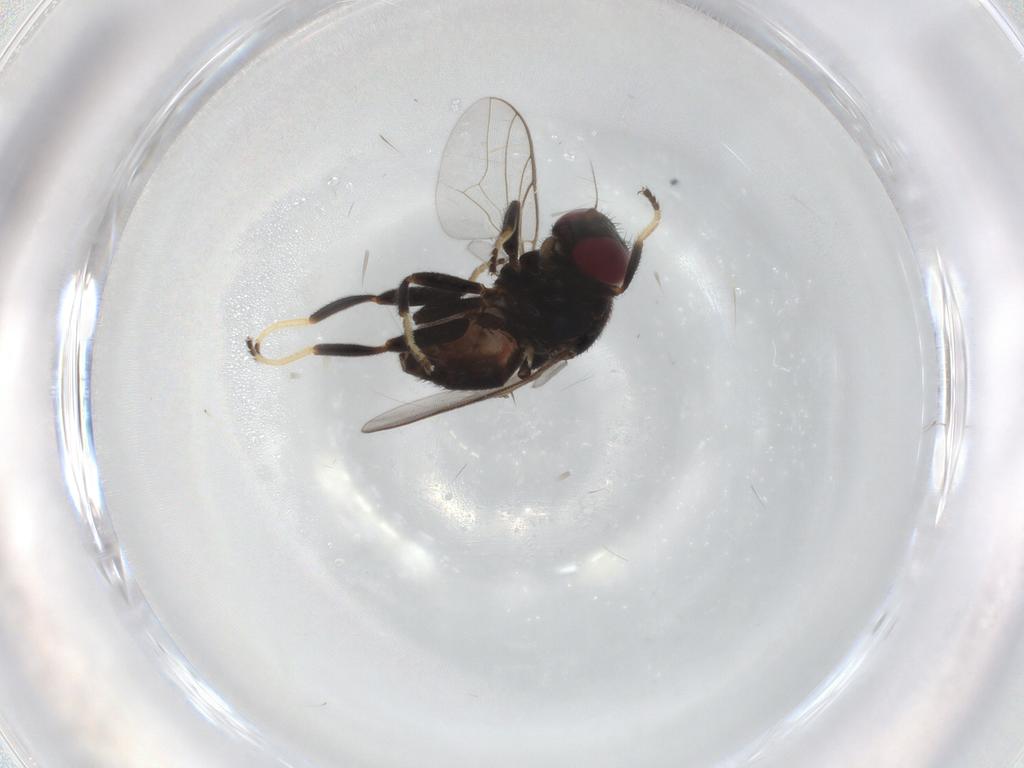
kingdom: Animalia
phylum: Arthropoda
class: Insecta
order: Diptera
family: Chloropidae
